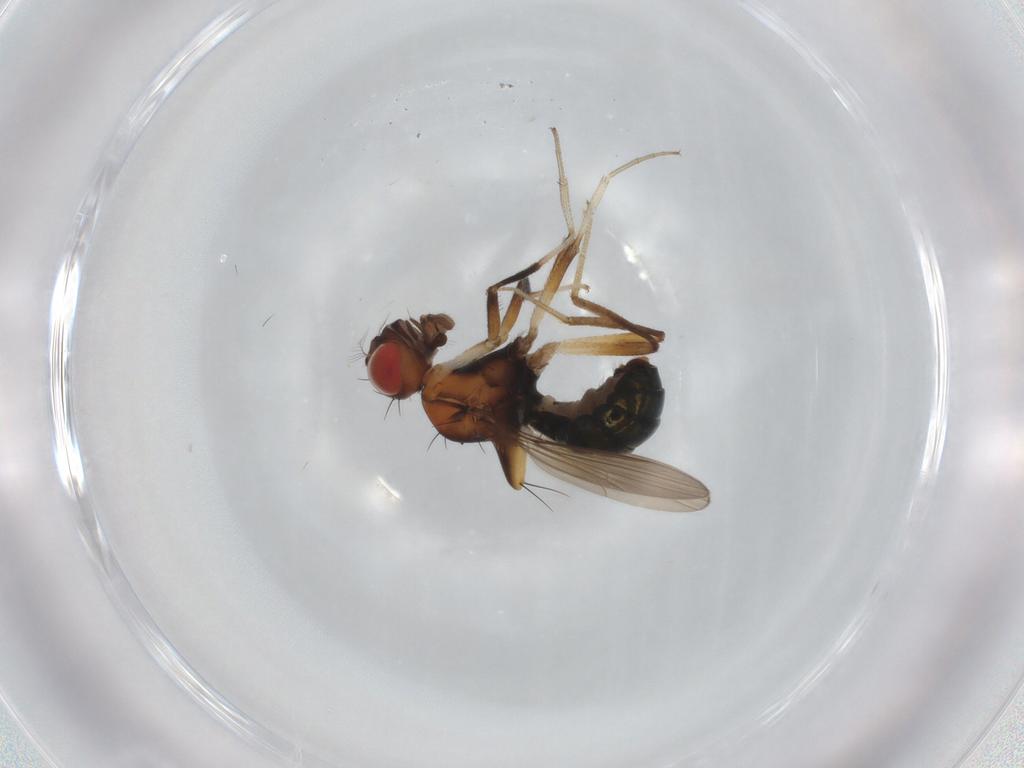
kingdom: Animalia
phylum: Arthropoda
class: Insecta
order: Diptera
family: Drosophilidae
